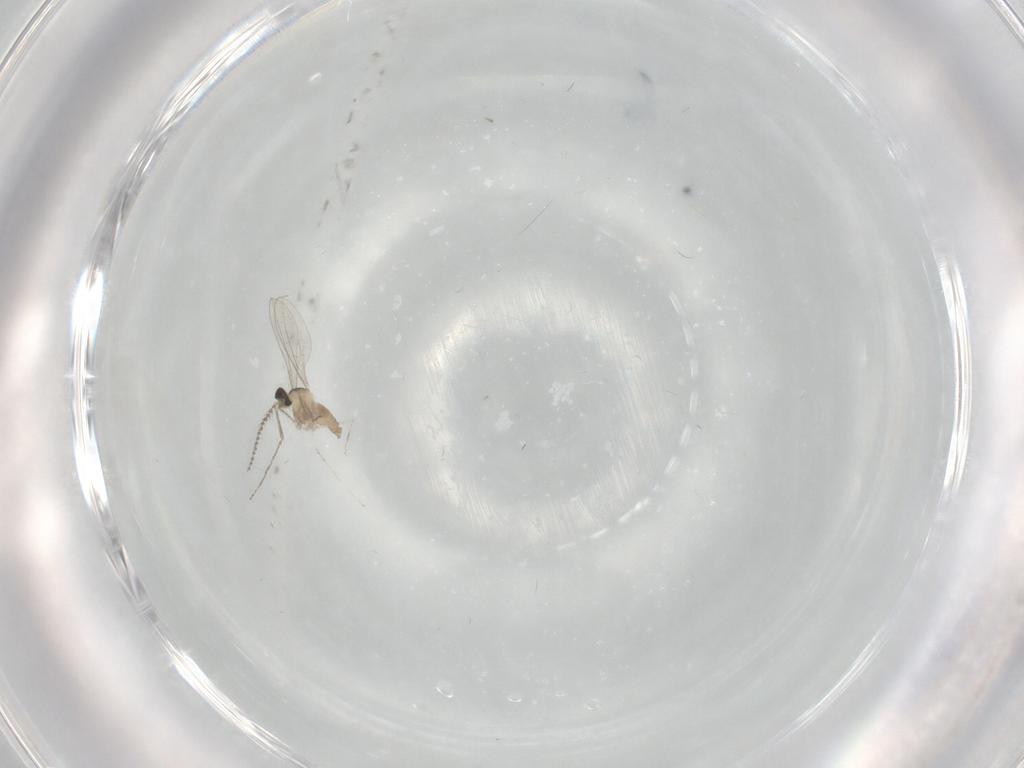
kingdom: Animalia
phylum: Arthropoda
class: Insecta
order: Diptera
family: Cecidomyiidae
